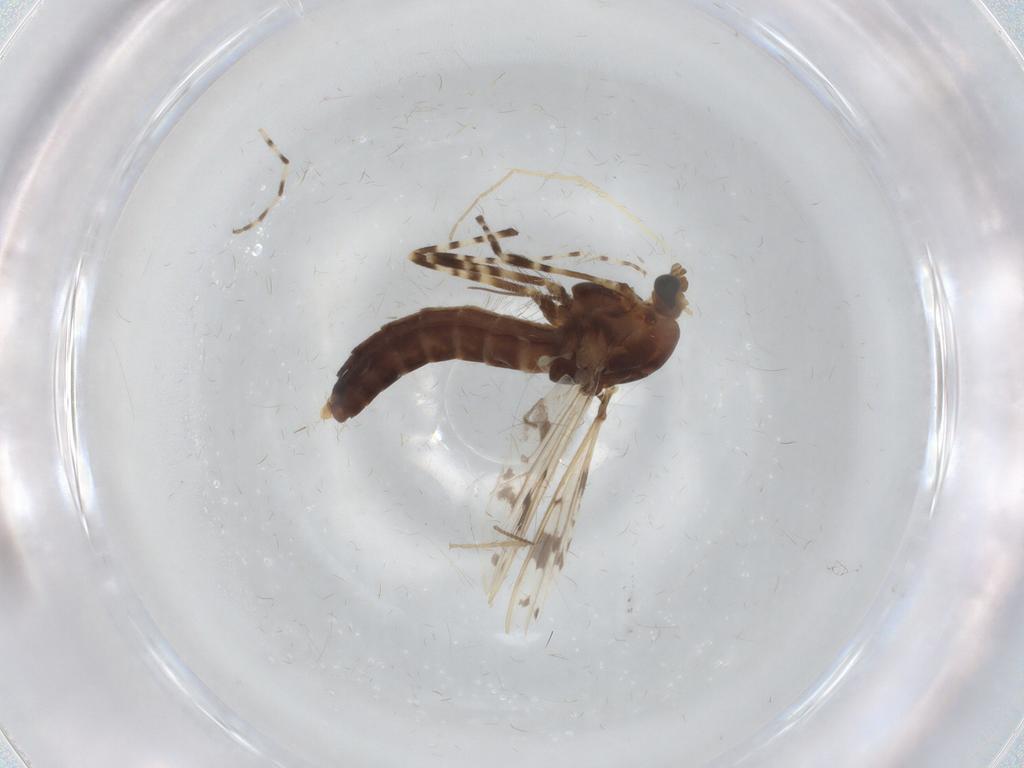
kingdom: Animalia
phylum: Arthropoda
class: Insecta
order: Diptera
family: Chironomidae
